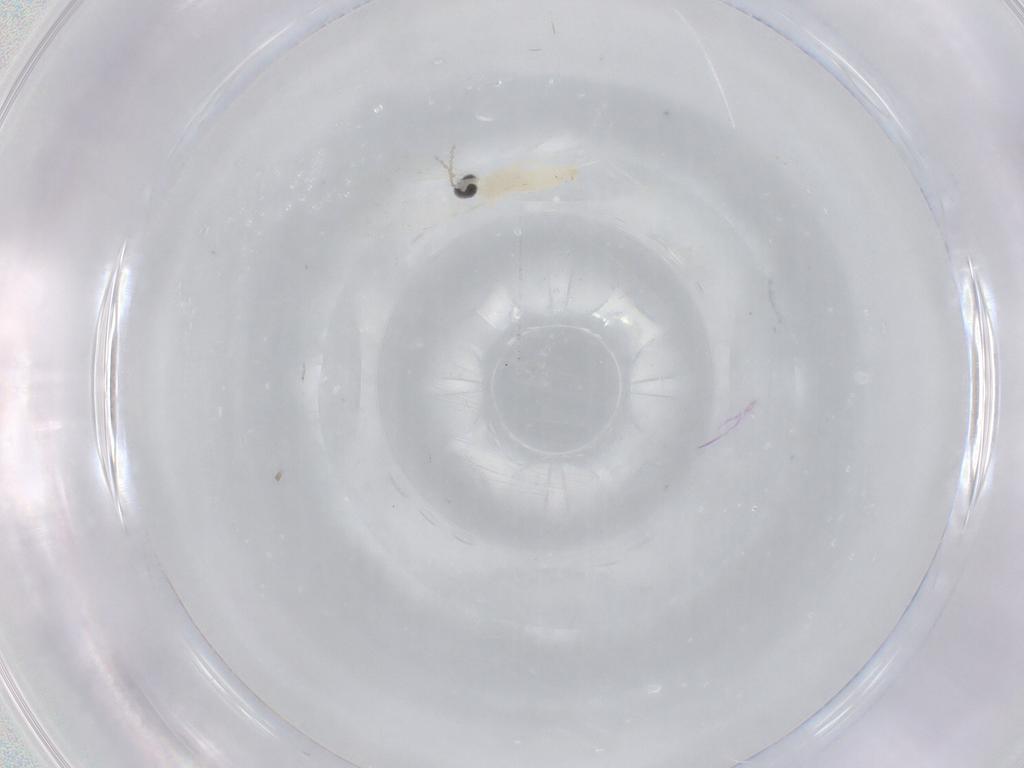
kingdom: Animalia
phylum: Arthropoda
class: Insecta
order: Diptera
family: Cecidomyiidae
